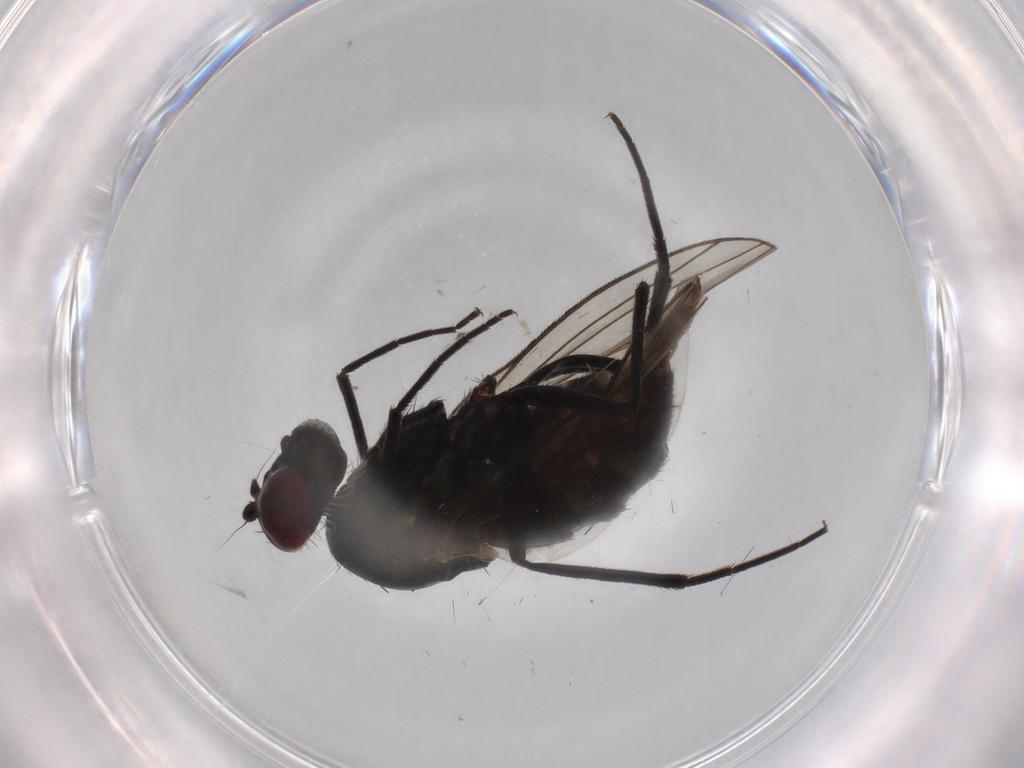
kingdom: Animalia
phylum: Arthropoda
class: Insecta
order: Diptera
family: Dolichopodidae
